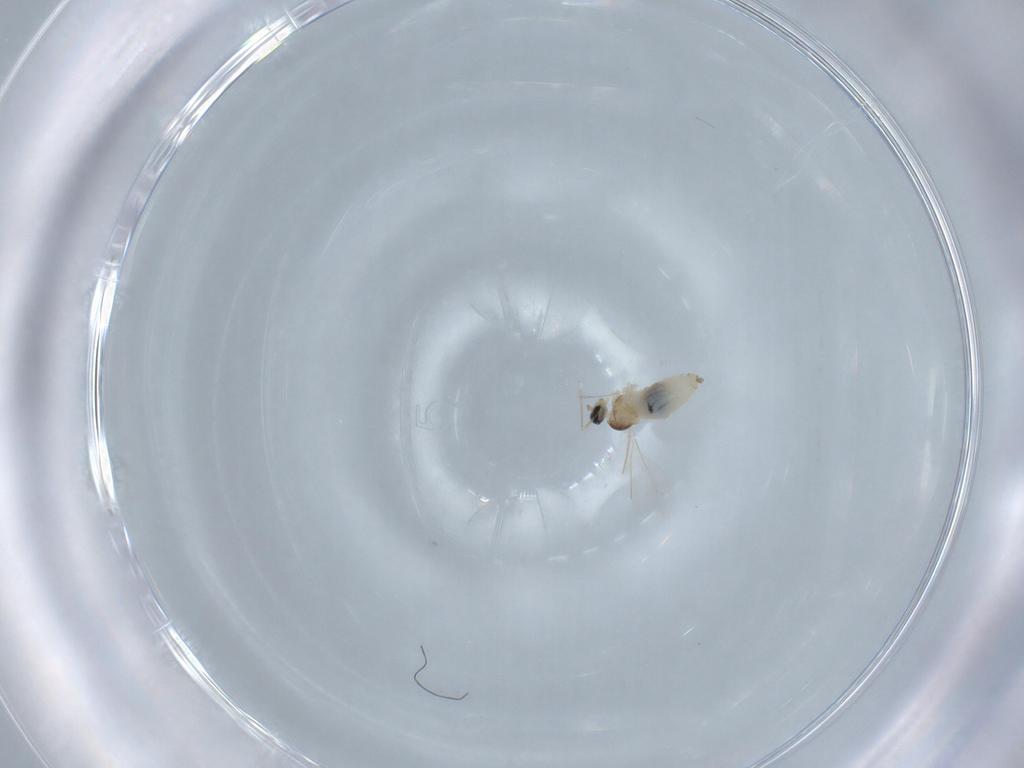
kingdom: Animalia
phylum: Arthropoda
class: Insecta
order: Diptera
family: Cecidomyiidae
